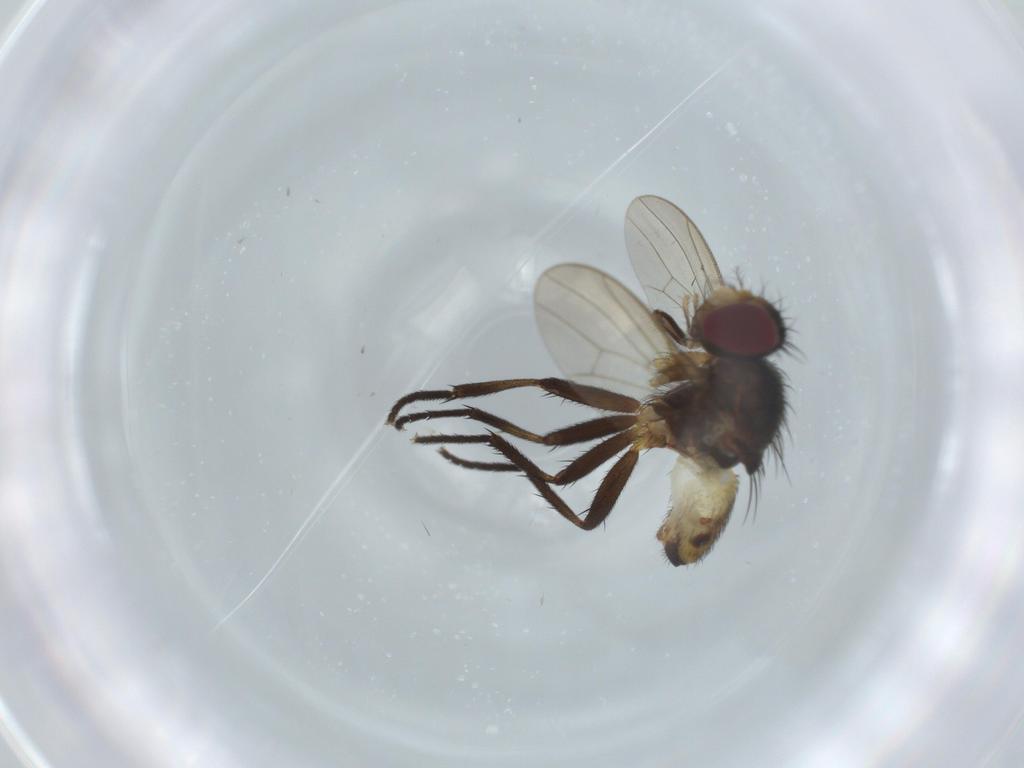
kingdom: Animalia
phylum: Arthropoda
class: Insecta
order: Diptera
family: Anthomyiidae
